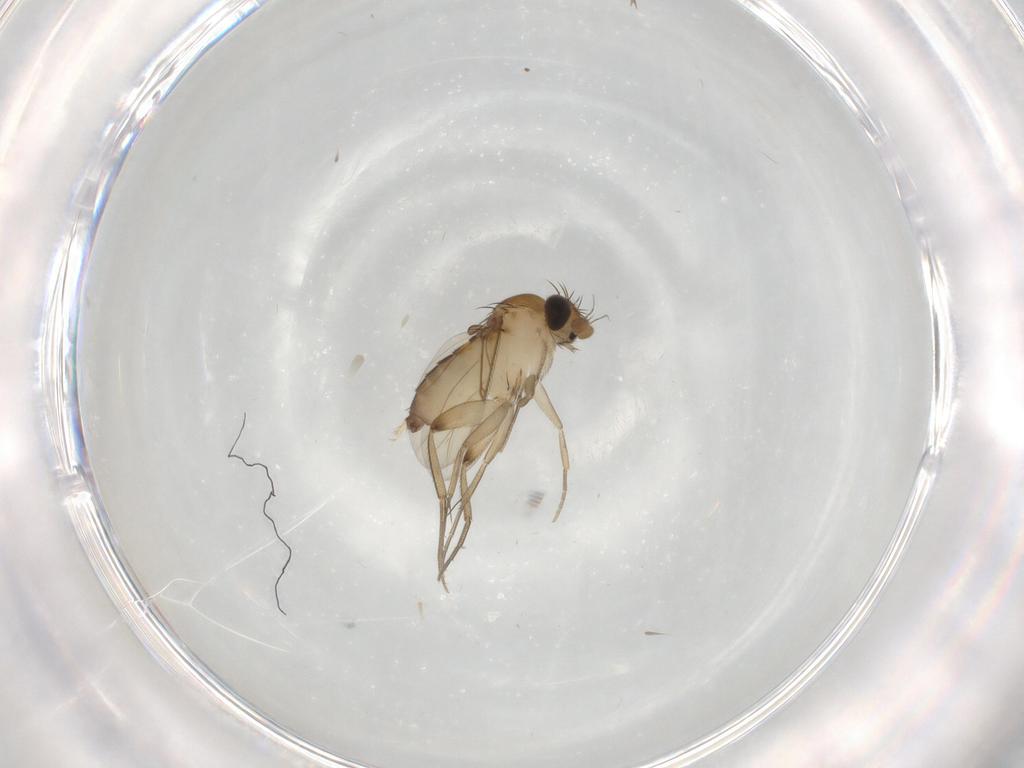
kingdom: Animalia
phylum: Arthropoda
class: Insecta
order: Diptera
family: Phoridae
